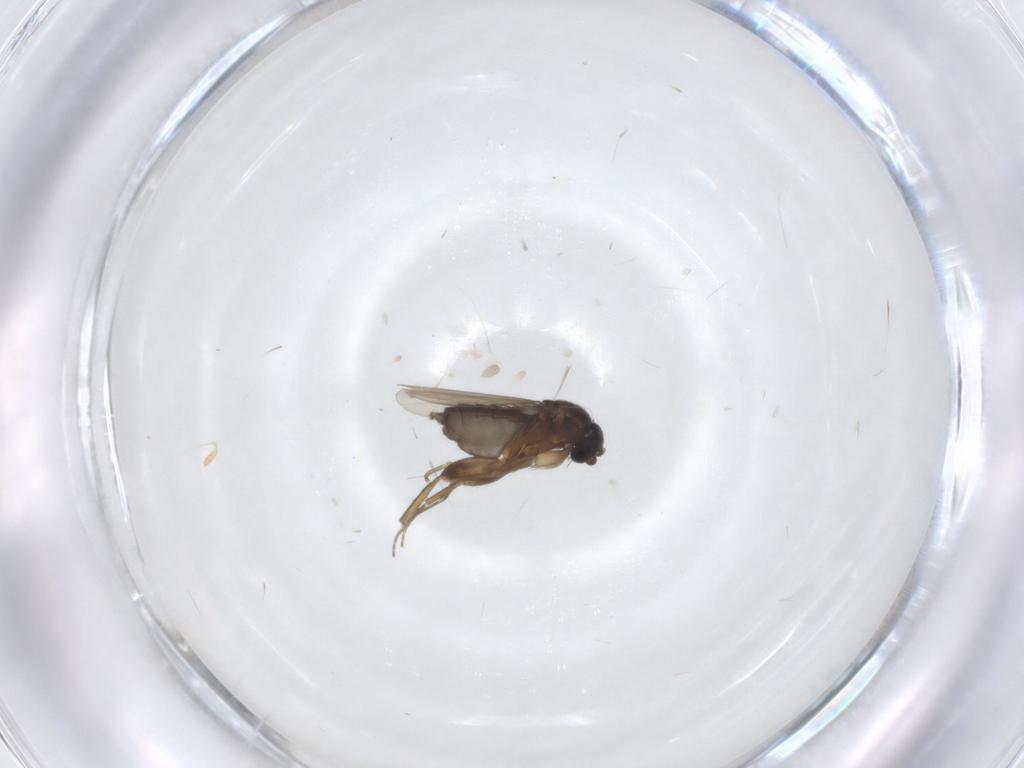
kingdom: Animalia
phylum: Arthropoda
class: Insecta
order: Diptera
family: Phoridae
